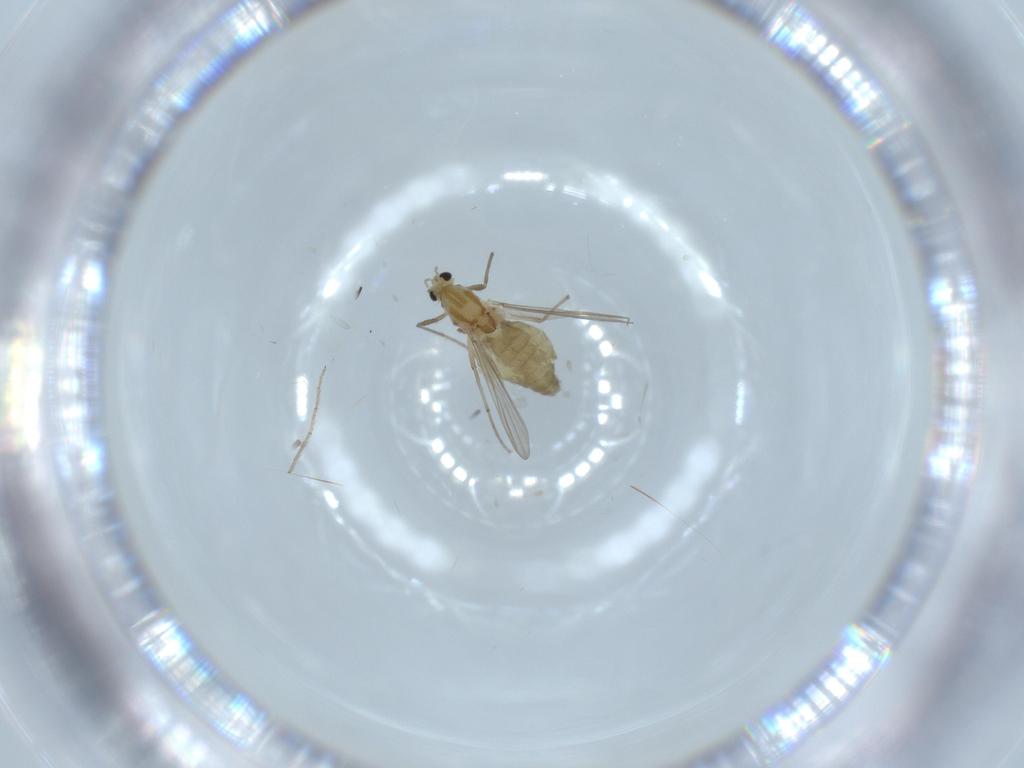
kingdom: Animalia
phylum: Arthropoda
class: Insecta
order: Diptera
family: Chironomidae
